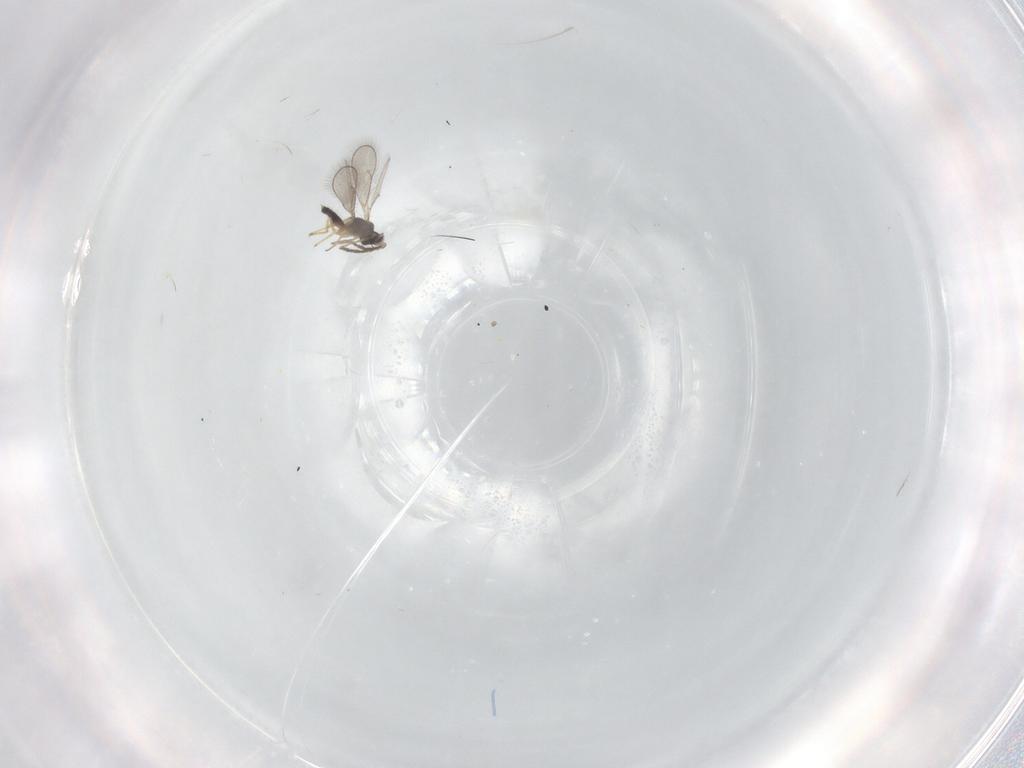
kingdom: Animalia
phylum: Arthropoda
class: Insecta
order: Hymenoptera
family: Eulophidae
